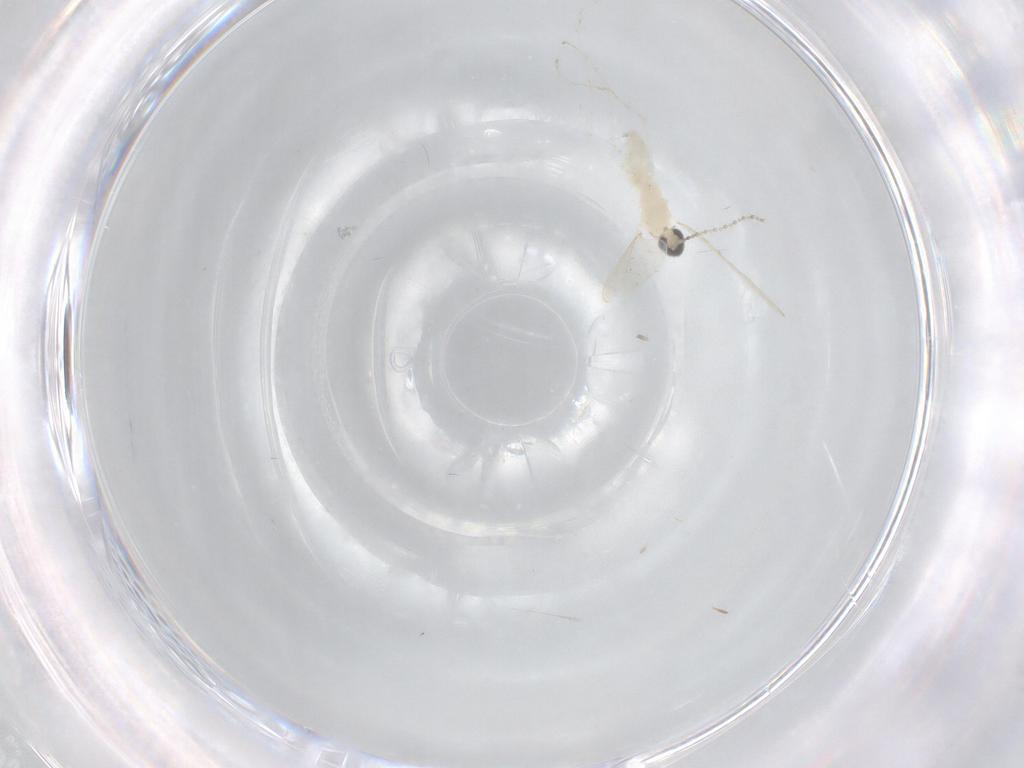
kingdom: Animalia
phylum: Arthropoda
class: Insecta
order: Diptera
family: Cecidomyiidae
